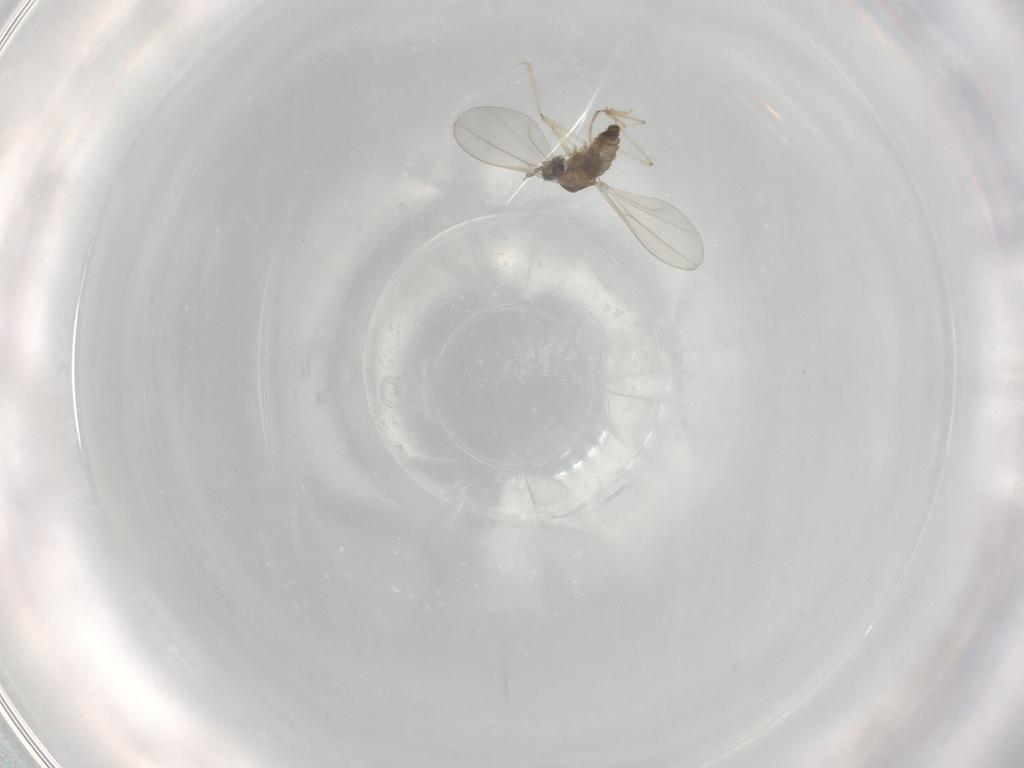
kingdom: Animalia
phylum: Arthropoda
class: Insecta
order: Diptera
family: Cecidomyiidae
